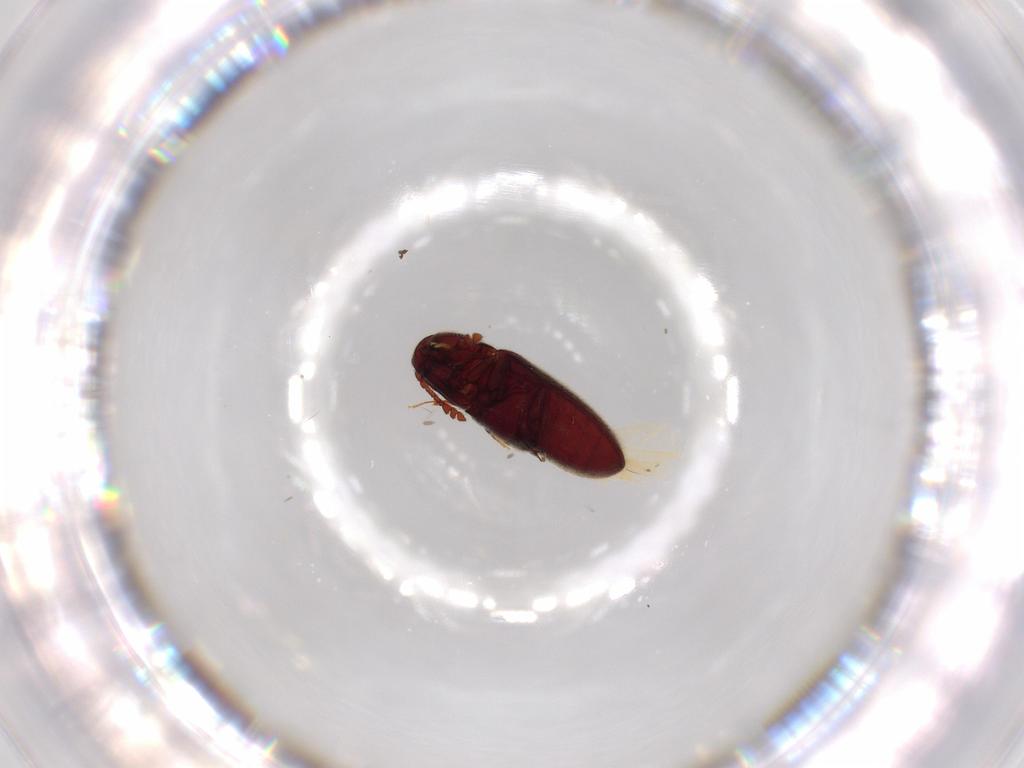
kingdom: Animalia
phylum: Arthropoda
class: Insecta
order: Coleoptera
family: Throscidae
